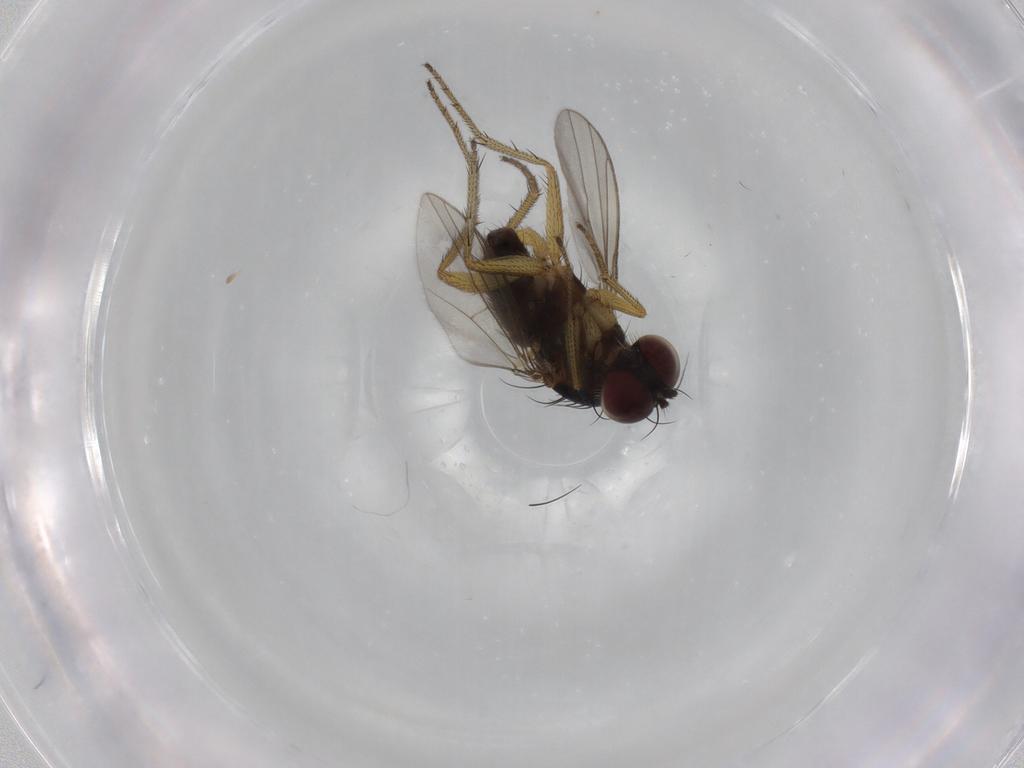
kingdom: Animalia
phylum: Arthropoda
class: Insecta
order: Diptera
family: Dolichopodidae
